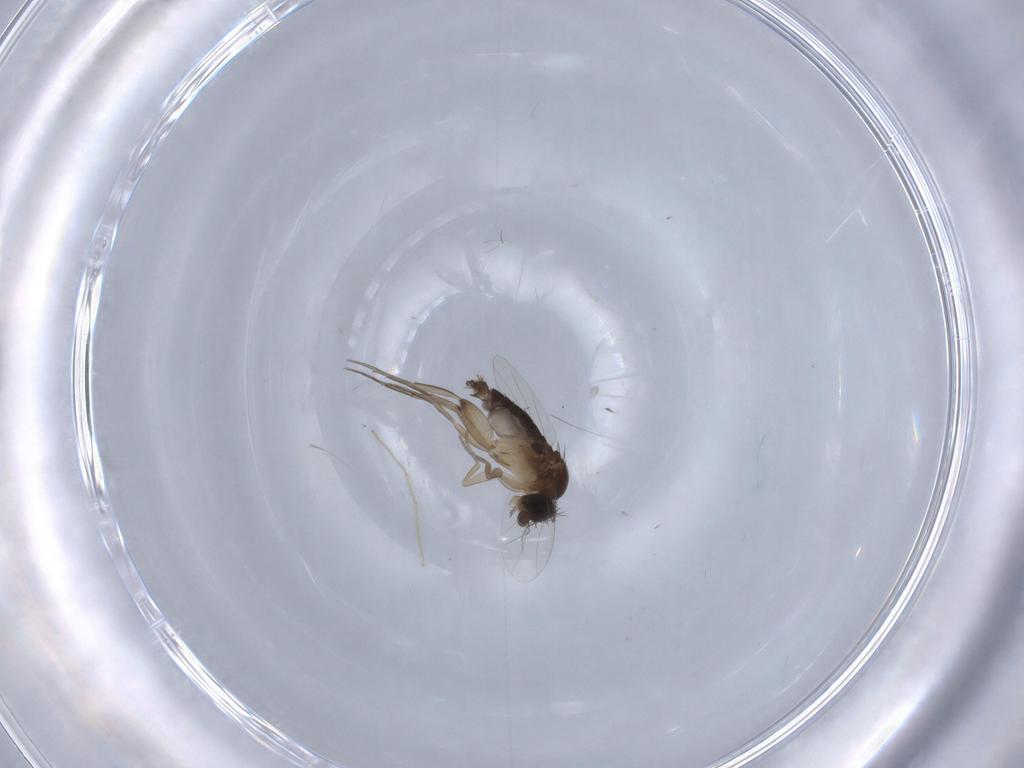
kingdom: Animalia
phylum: Arthropoda
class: Insecta
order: Diptera
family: Phoridae
